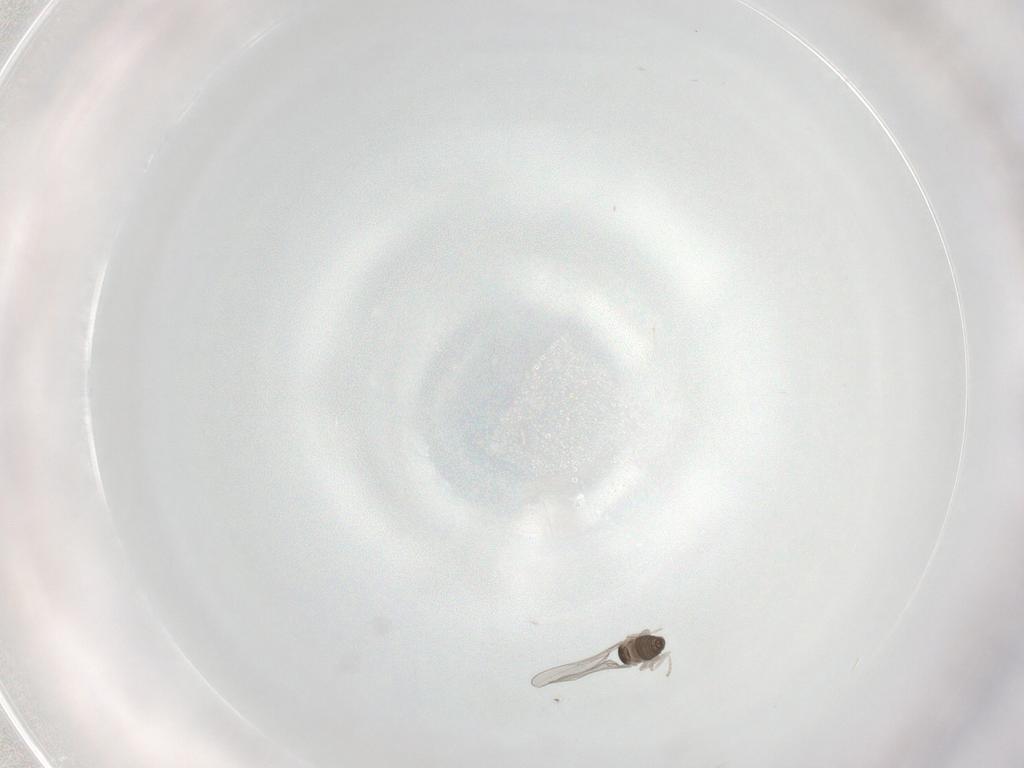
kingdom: Animalia
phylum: Arthropoda
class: Insecta
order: Diptera
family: Cecidomyiidae
